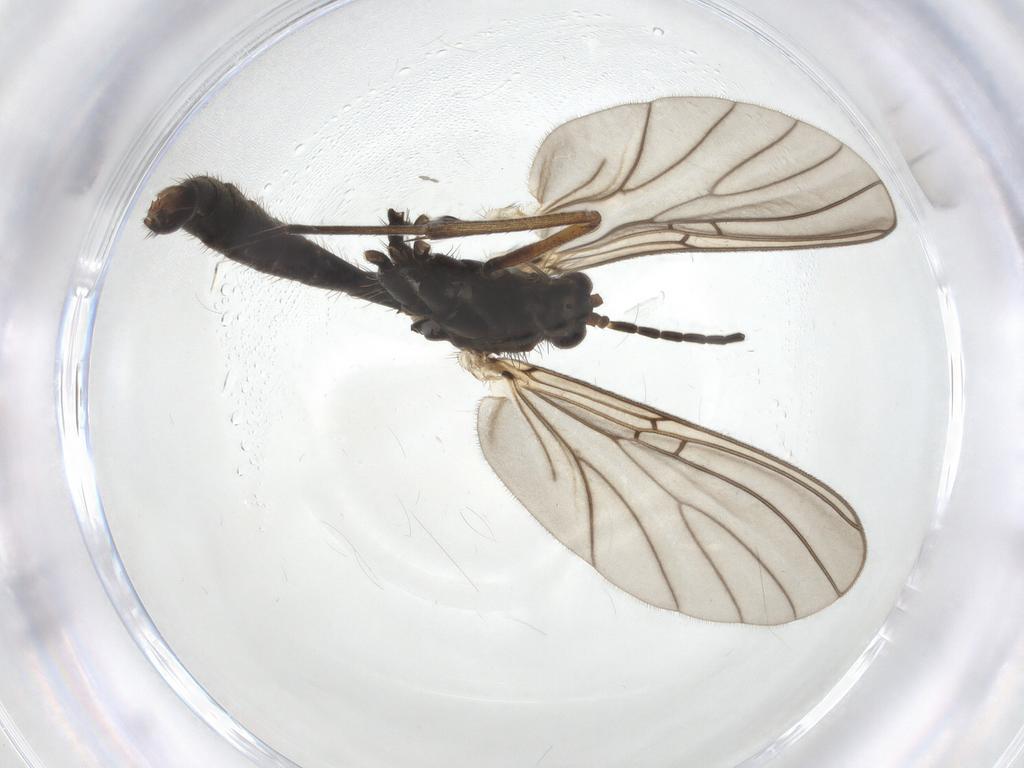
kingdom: Animalia
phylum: Arthropoda
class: Insecta
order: Diptera
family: Mycetophilidae
